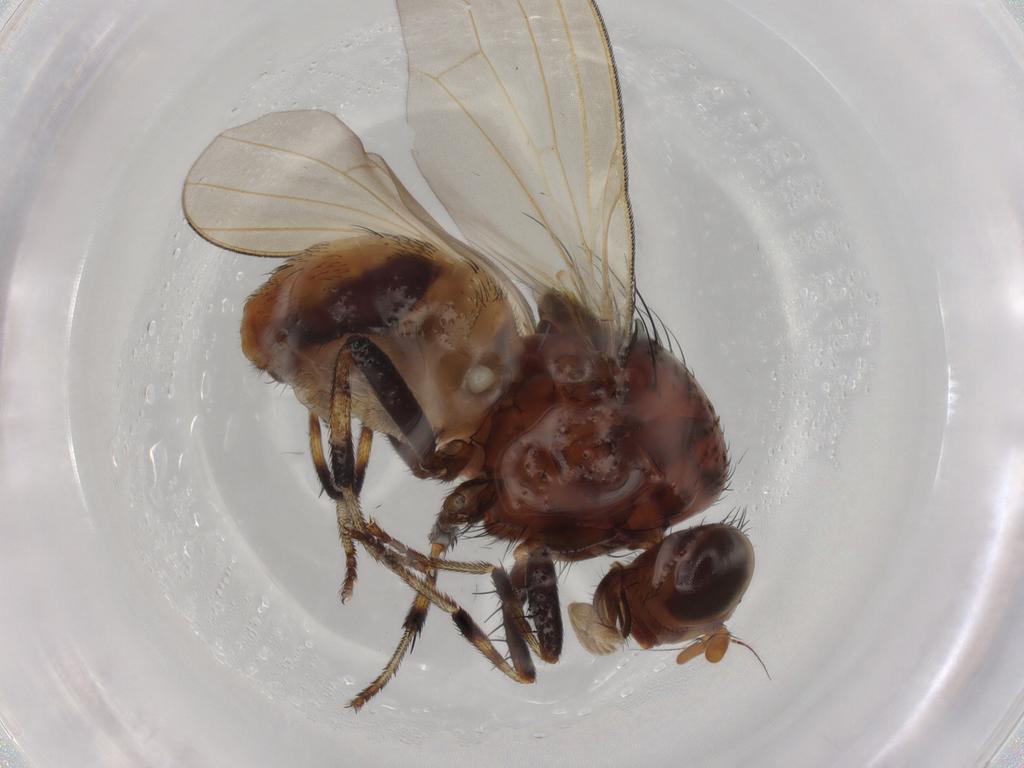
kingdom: Animalia
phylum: Arthropoda
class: Insecta
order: Diptera
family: Lauxaniidae
